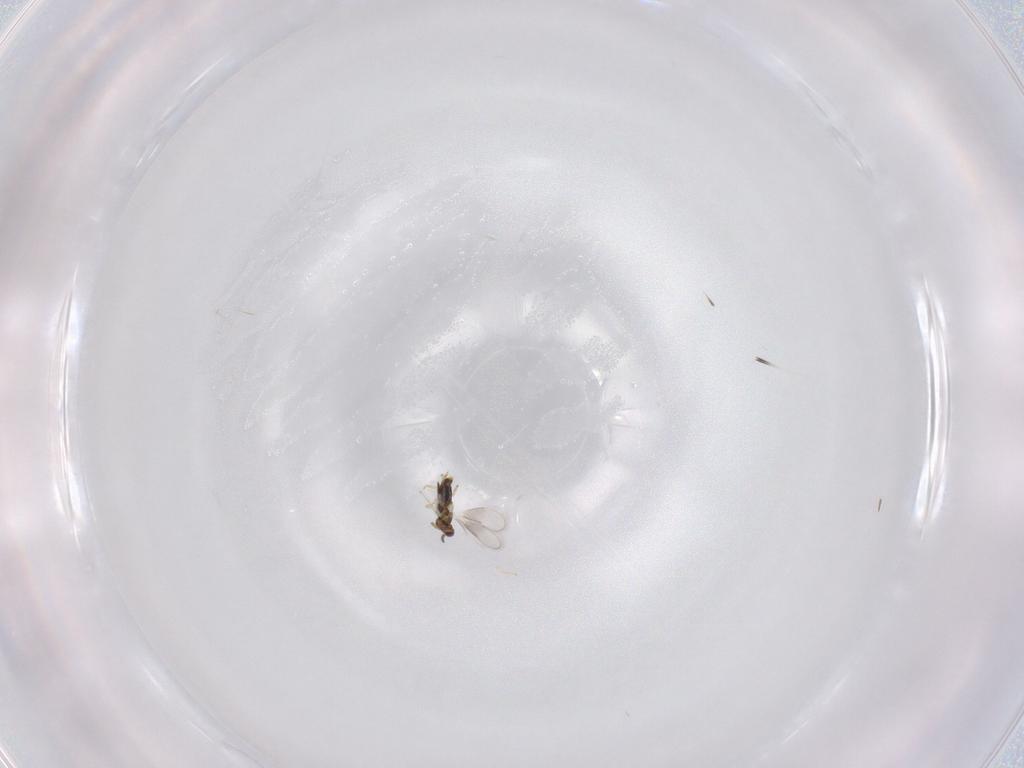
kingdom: Animalia
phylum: Arthropoda
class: Insecta
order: Hymenoptera
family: Aphelinidae
